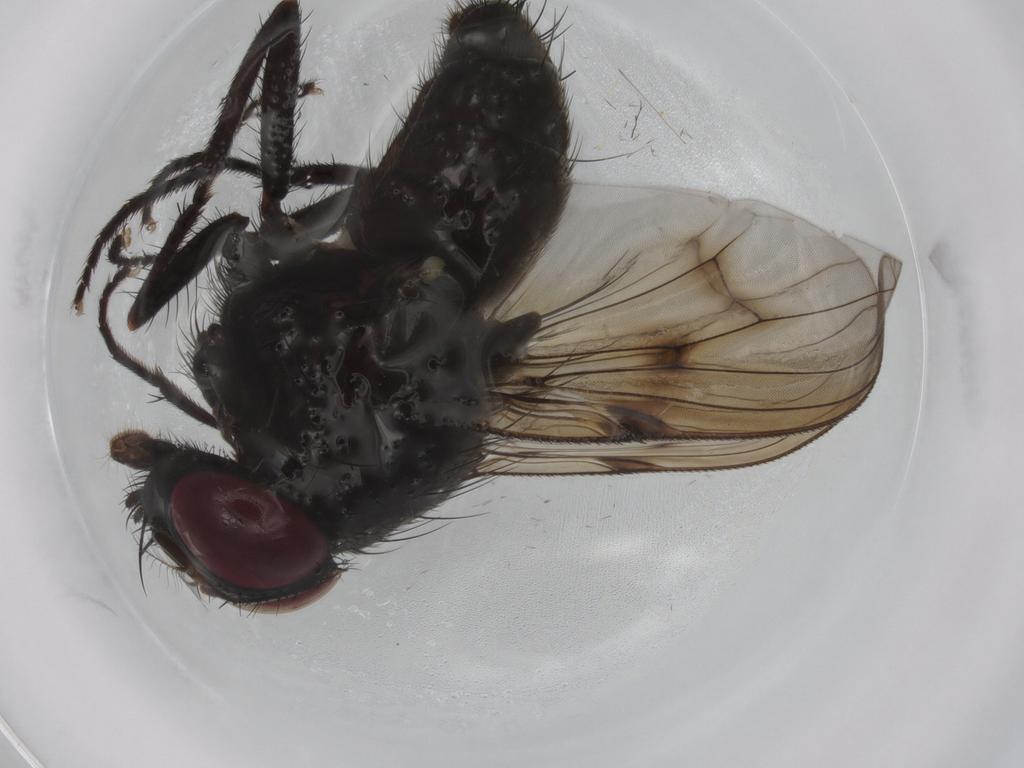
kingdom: Animalia
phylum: Arthropoda
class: Insecta
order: Diptera
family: Muscidae
